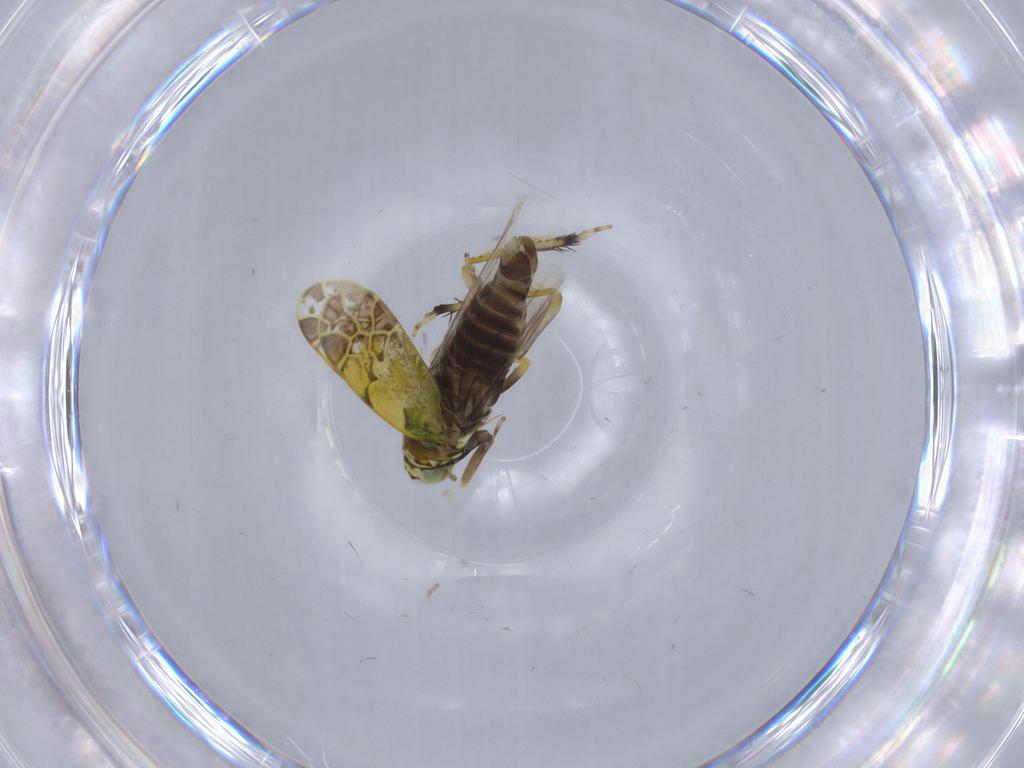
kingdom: Animalia
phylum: Arthropoda
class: Insecta
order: Hemiptera
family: Cicadellidae
